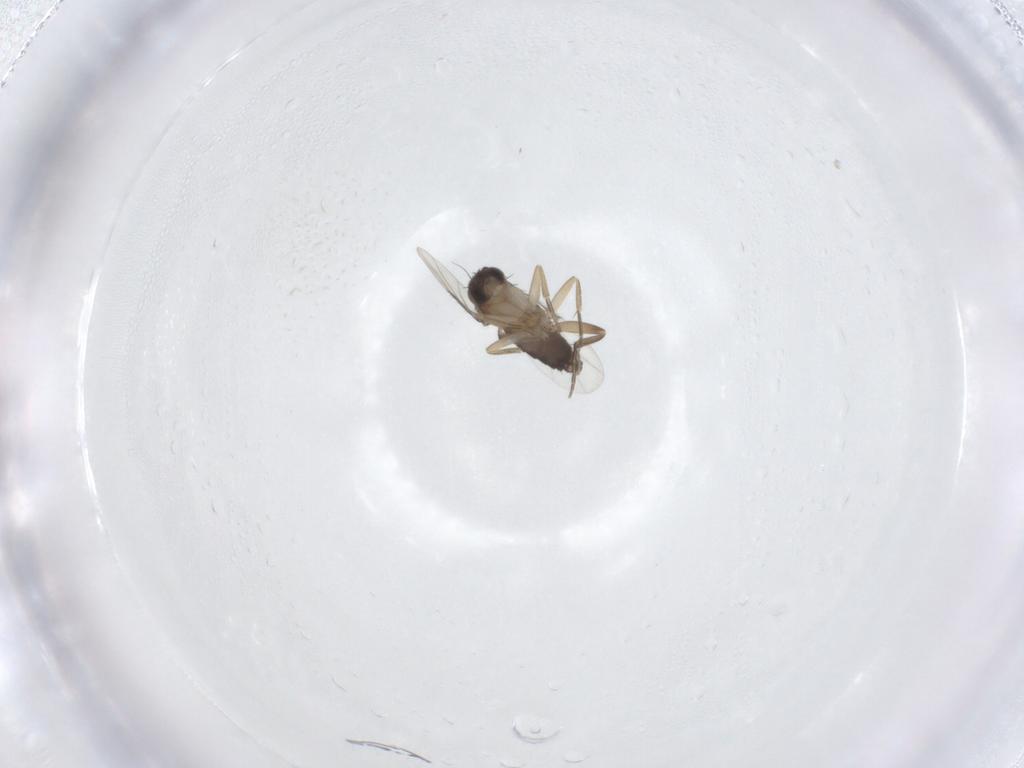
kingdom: Animalia
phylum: Arthropoda
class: Insecta
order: Diptera
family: Phoridae
